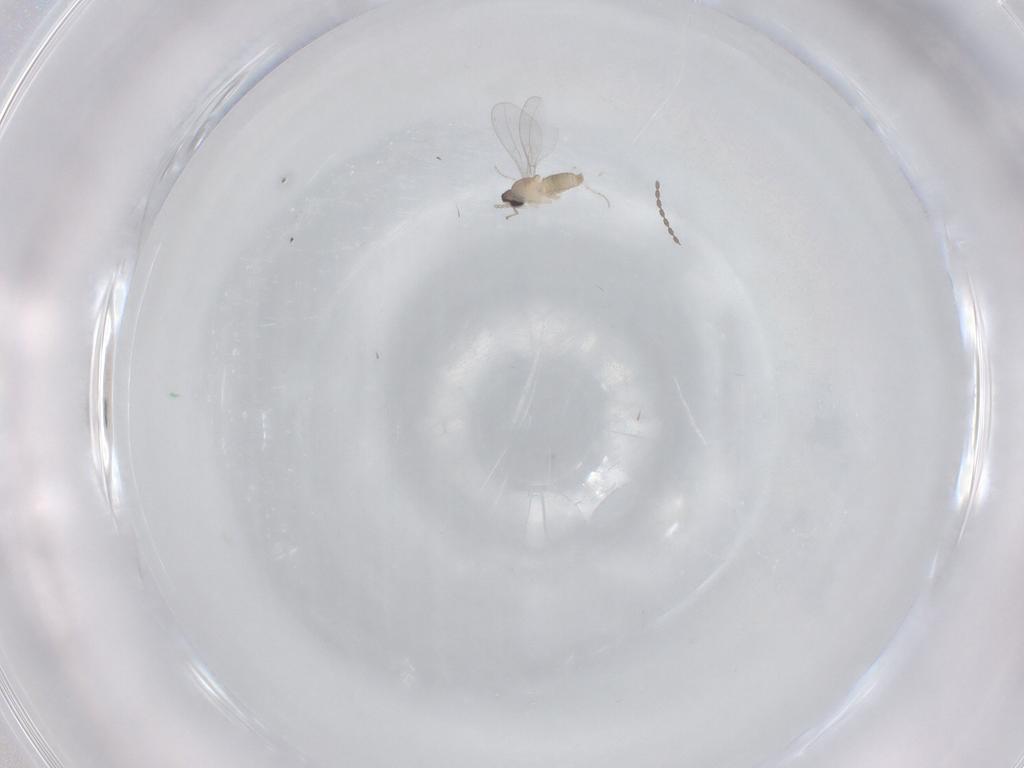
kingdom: Animalia
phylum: Arthropoda
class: Insecta
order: Diptera
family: Cecidomyiidae
